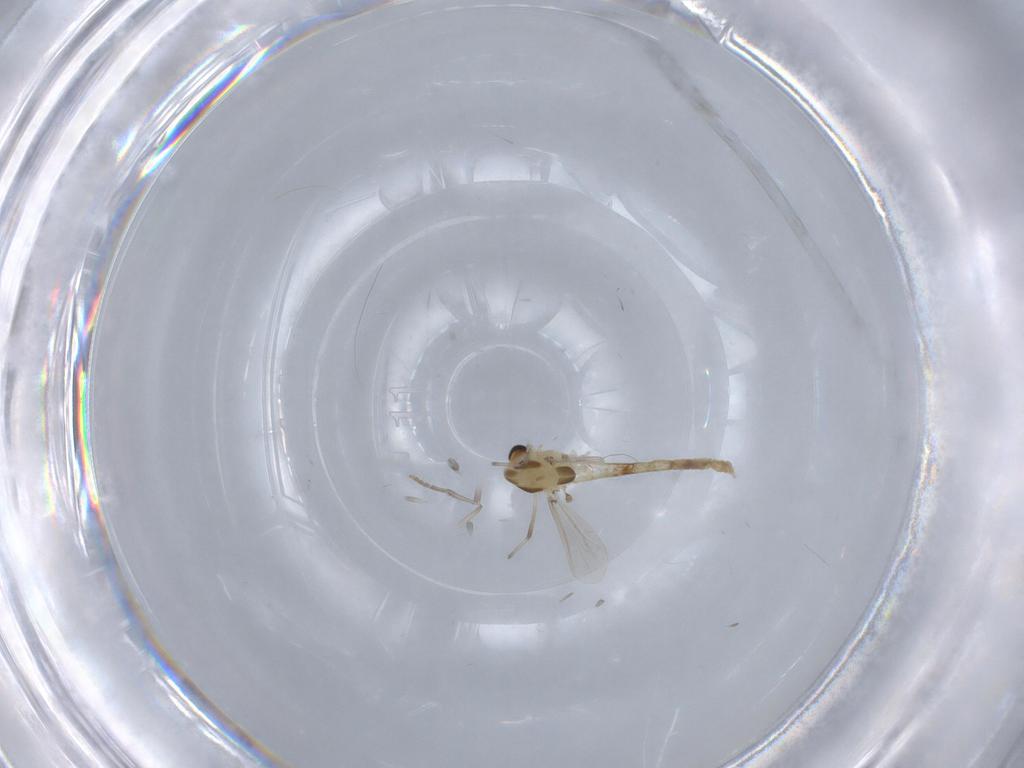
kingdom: Animalia
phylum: Arthropoda
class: Insecta
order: Diptera
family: Chironomidae
